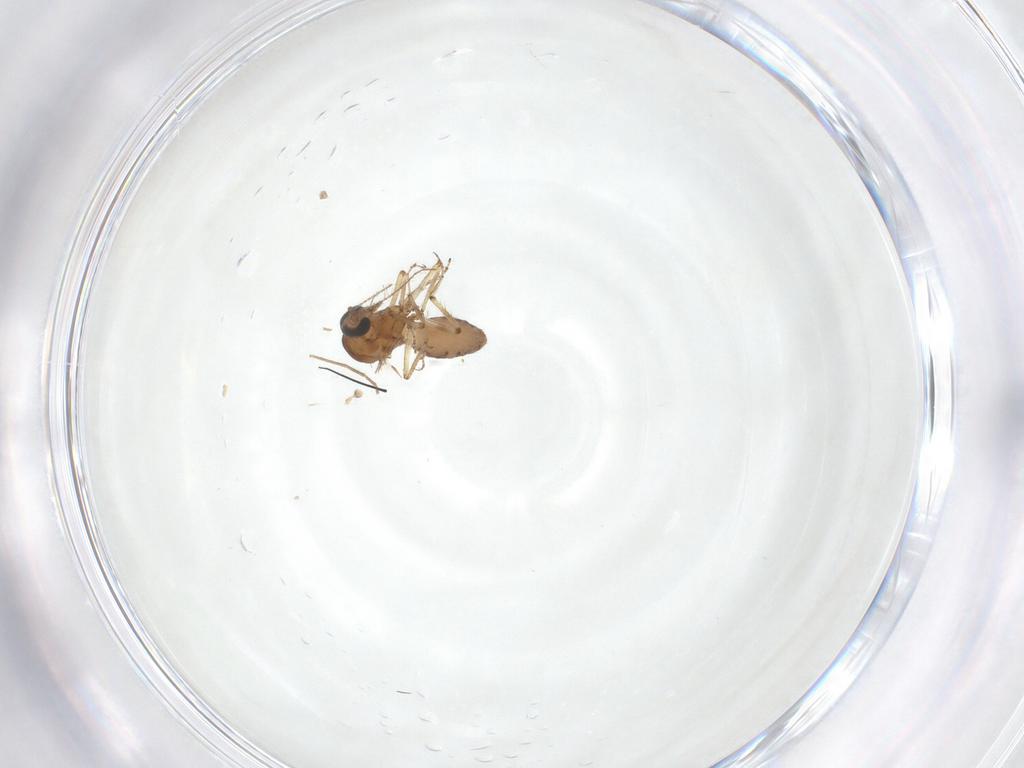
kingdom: Animalia
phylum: Arthropoda
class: Insecta
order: Diptera
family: Ceratopogonidae
